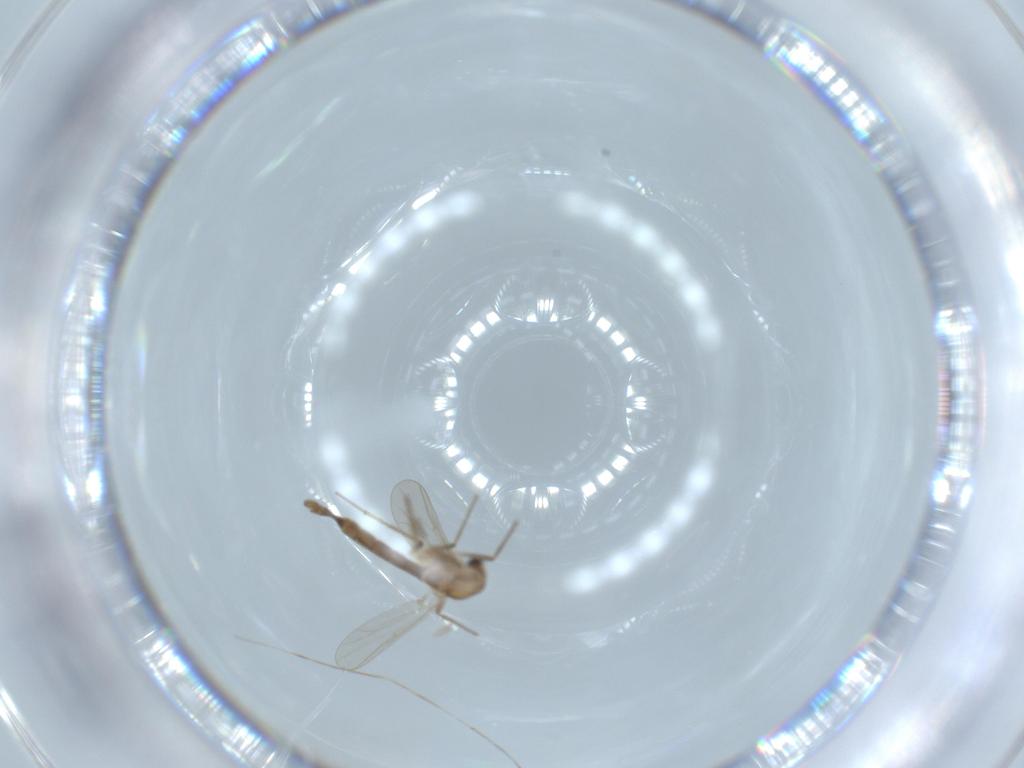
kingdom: Animalia
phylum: Arthropoda
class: Insecta
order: Diptera
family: Chironomidae
